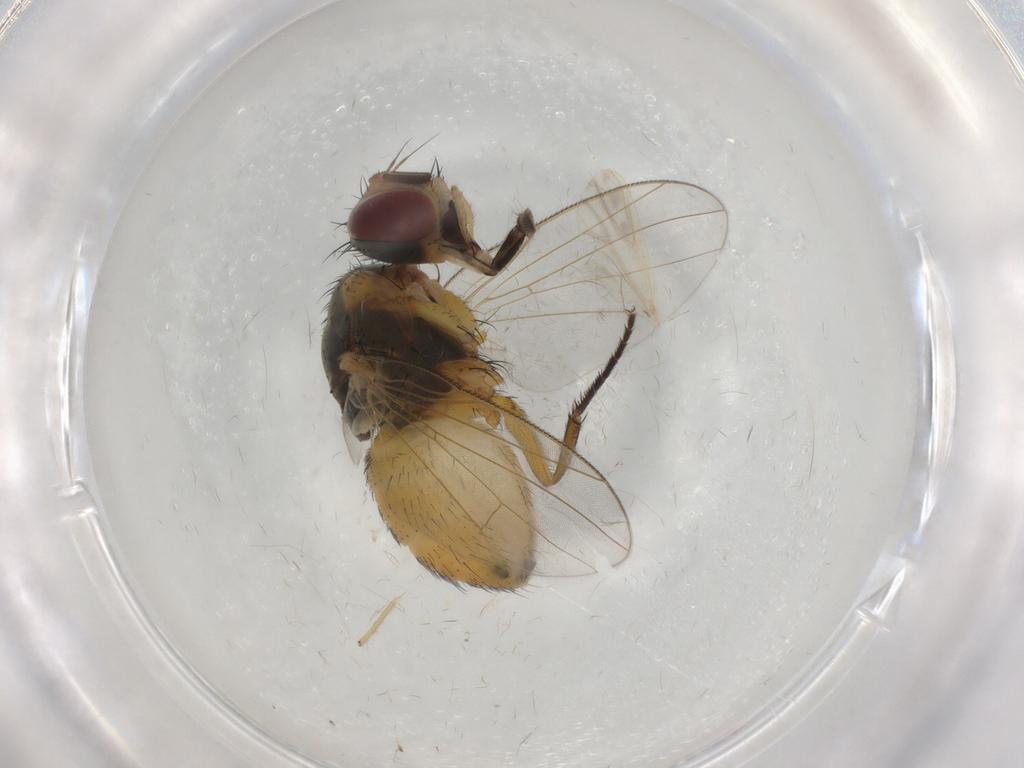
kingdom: Animalia
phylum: Arthropoda
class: Insecta
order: Diptera
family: Muscidae
